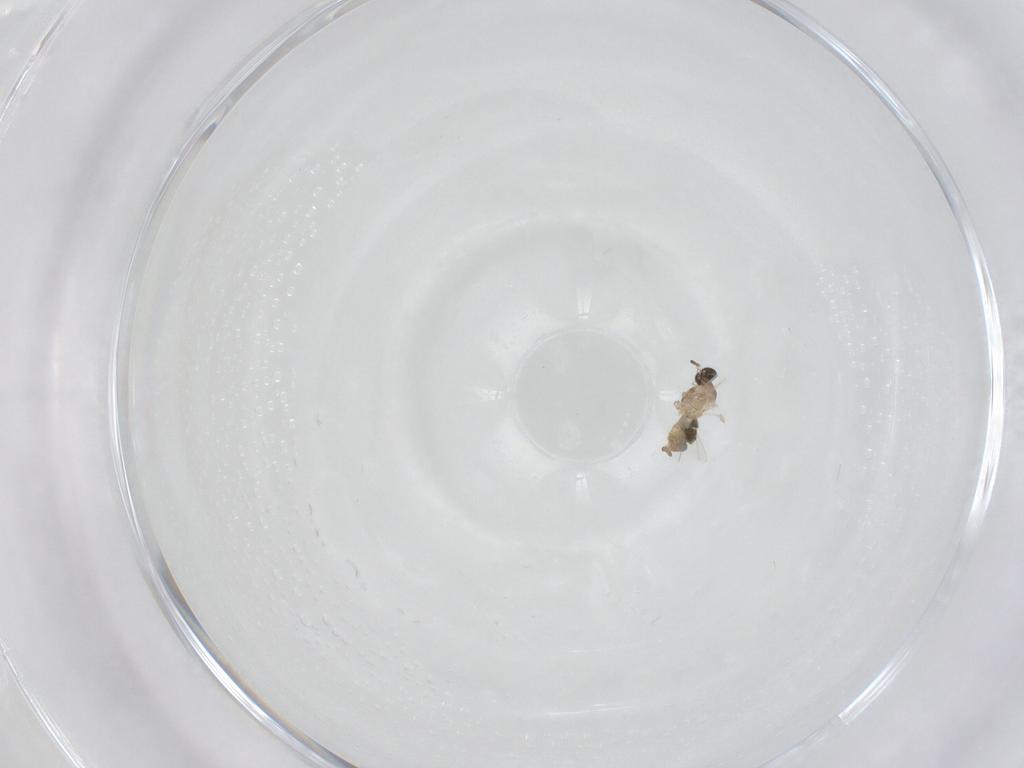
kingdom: Animalia
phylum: Arthropoda
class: Insecta
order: Diptera
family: Cecidomyiidae
